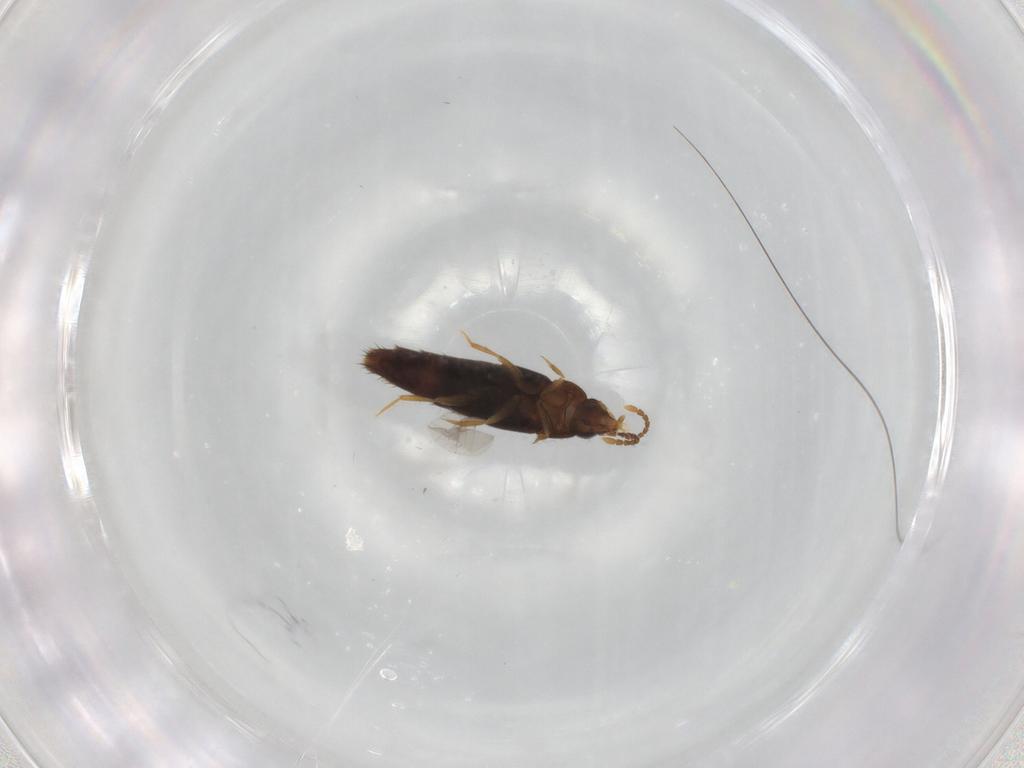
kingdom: Animalia
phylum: Arthropoda
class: Insecta
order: Coleoptera
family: Staphylinidae
